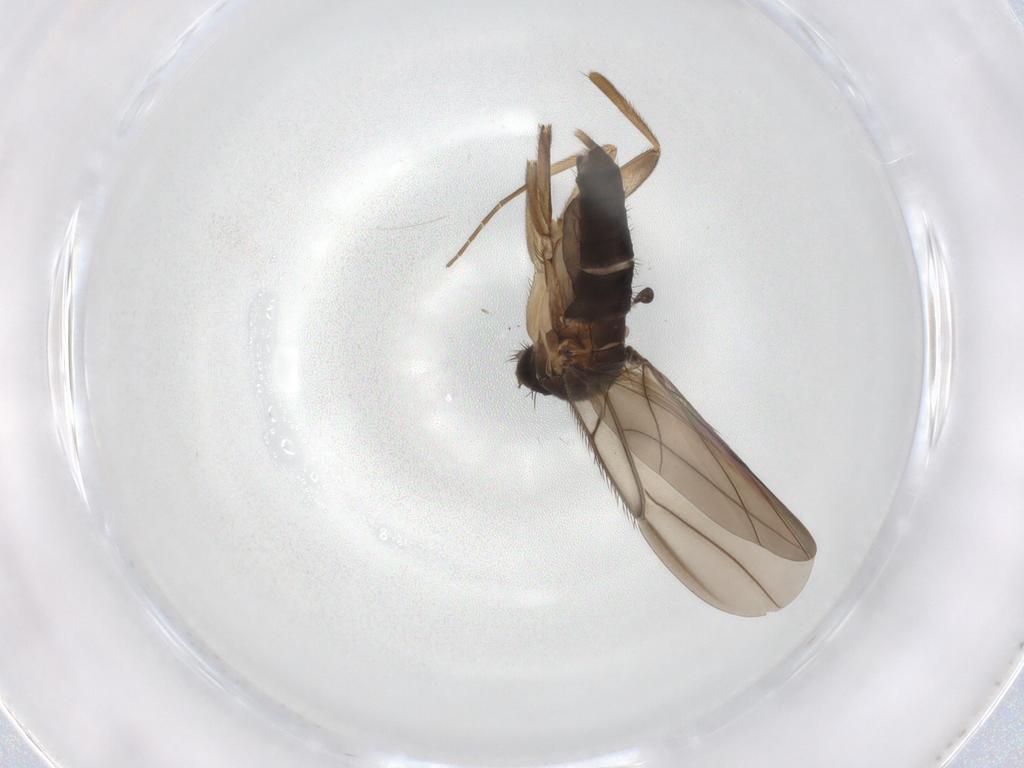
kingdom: Animalia
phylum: Arthropoda
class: Insecta
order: Diptera
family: Phoridae
